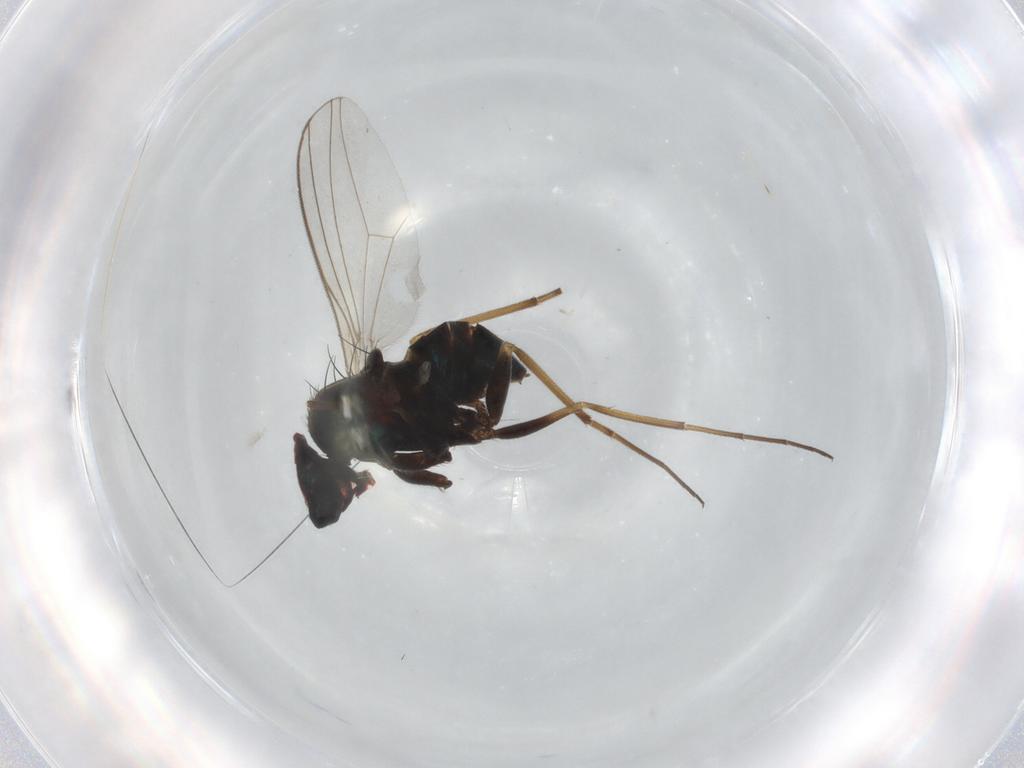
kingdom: Animalia
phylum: Arthropoda
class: Insecta
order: Diptera
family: Dolichopodidae
